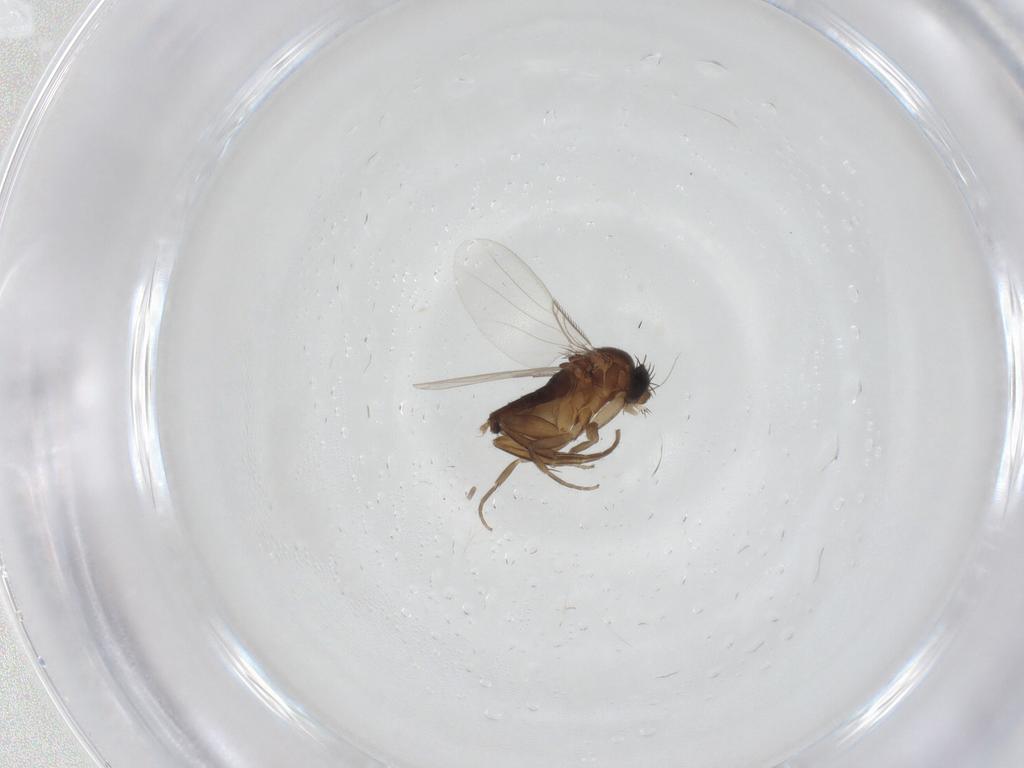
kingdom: Animalia
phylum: Arthropoda
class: Insecta
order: Diptera
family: Phoridae
